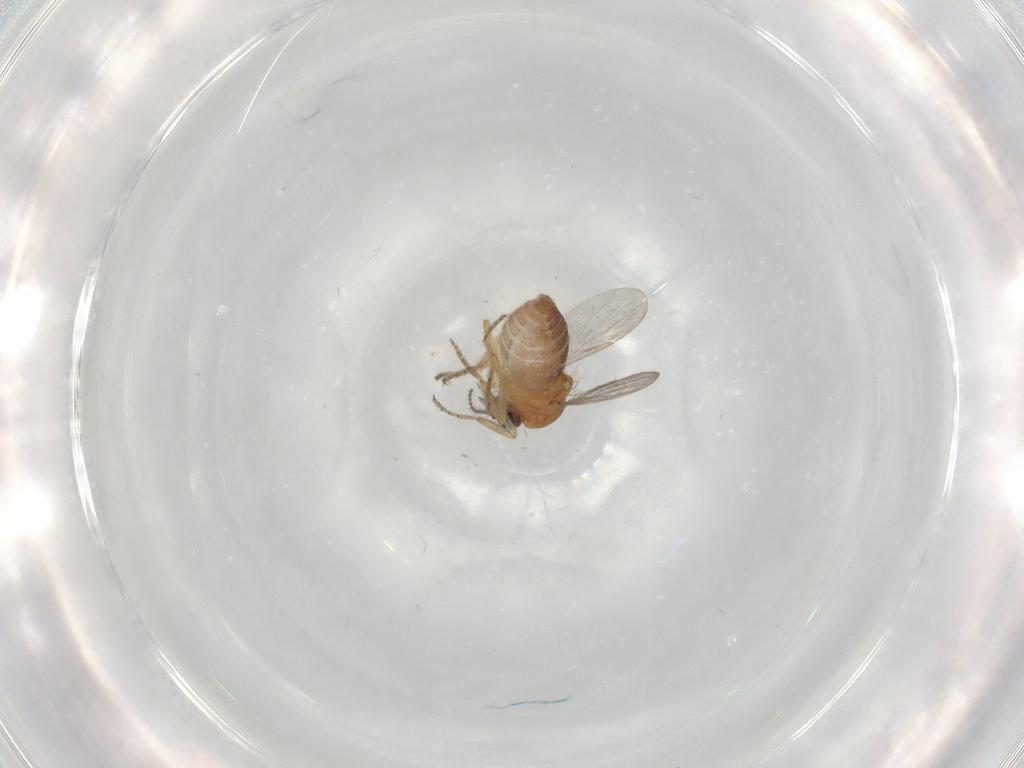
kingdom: Animalia
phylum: Arthropoda
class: Insecta
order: Diptera
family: Ceratopogonidae
